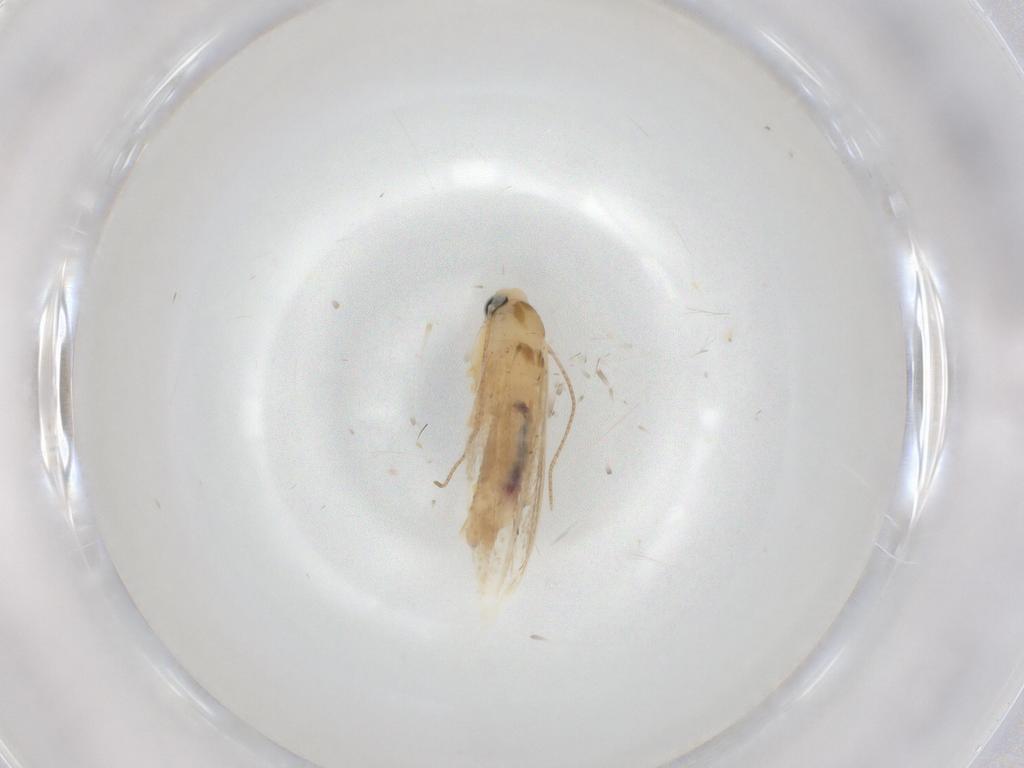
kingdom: Animalia
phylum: Arthropoda
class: Insecta
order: Lepidoptera
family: Bucculatricidae
